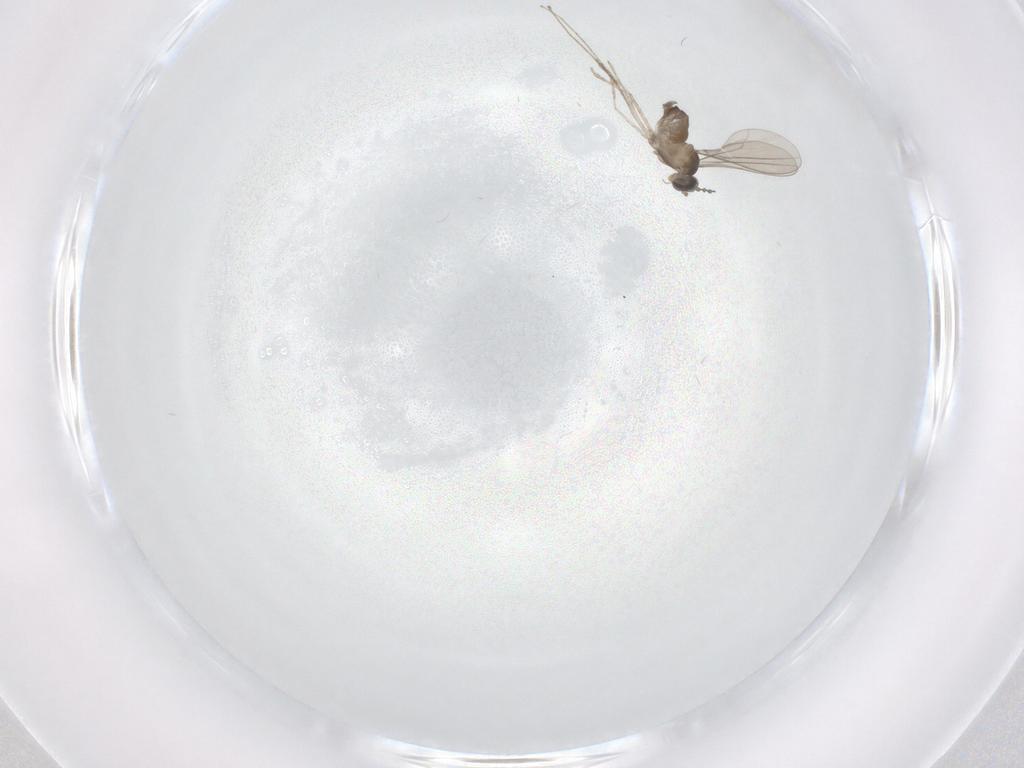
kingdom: Animalia
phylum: Arthropoda
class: Insecta
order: Diptera
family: Cecidomyiidae
